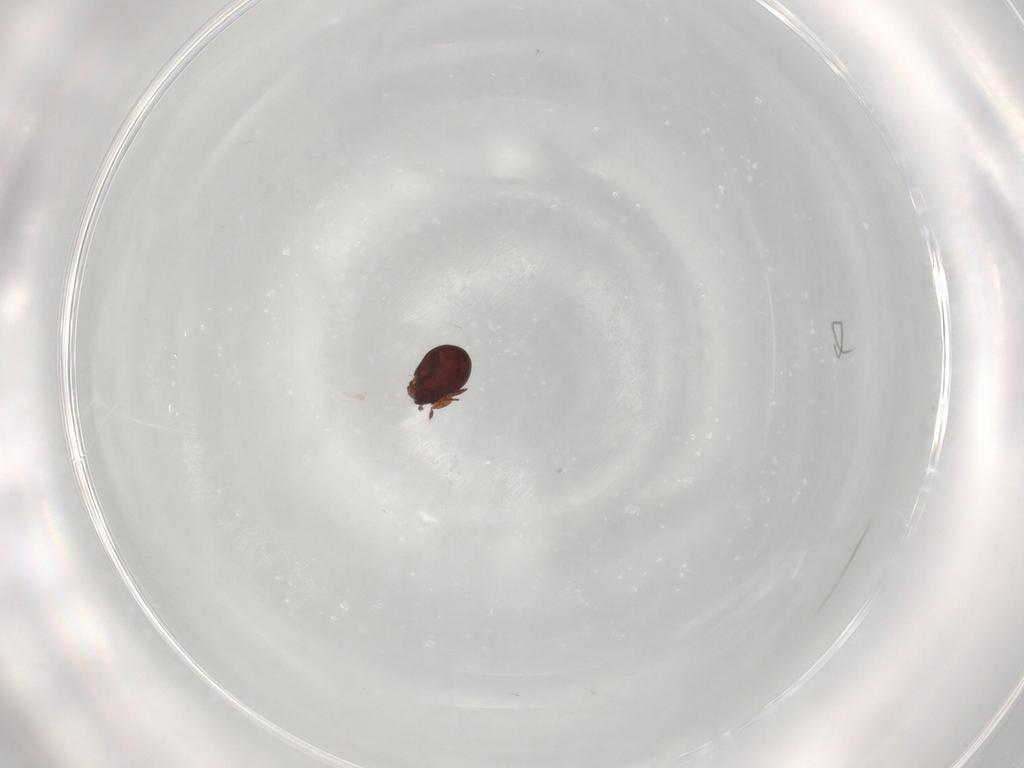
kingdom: Animalia
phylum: Arthropoda
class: Arachnida
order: Sarcoptiformes
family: Humerobatidae
